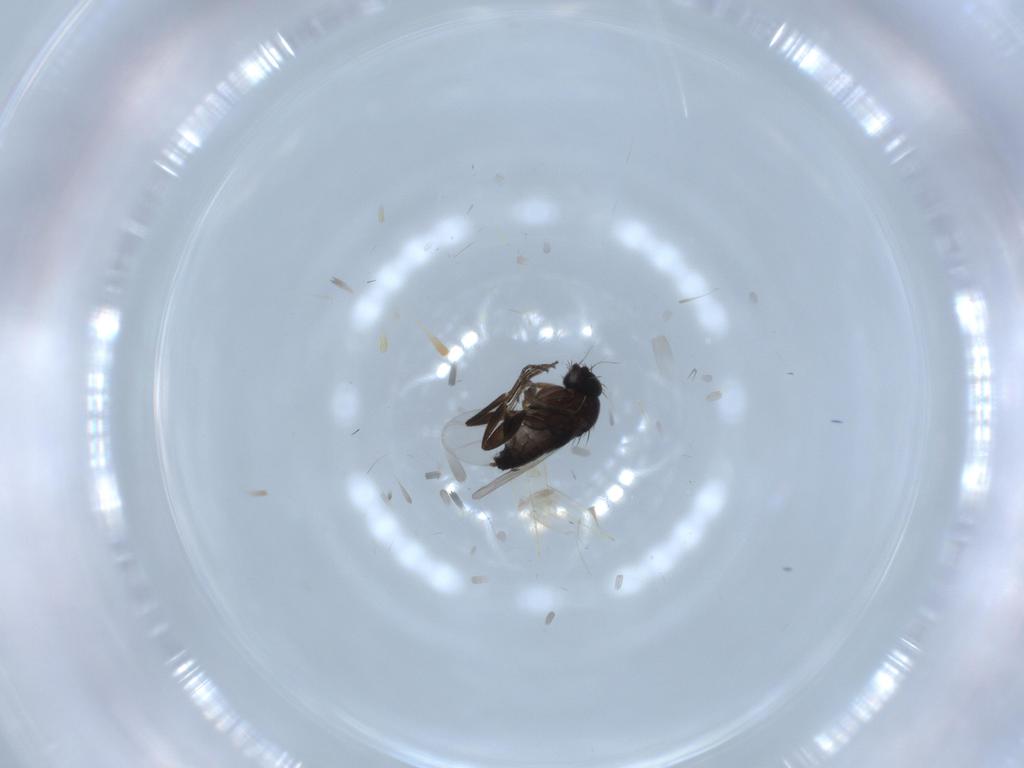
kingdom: Animalia
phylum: Arthropoda
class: Insecta
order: Diptera
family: Phoridae
